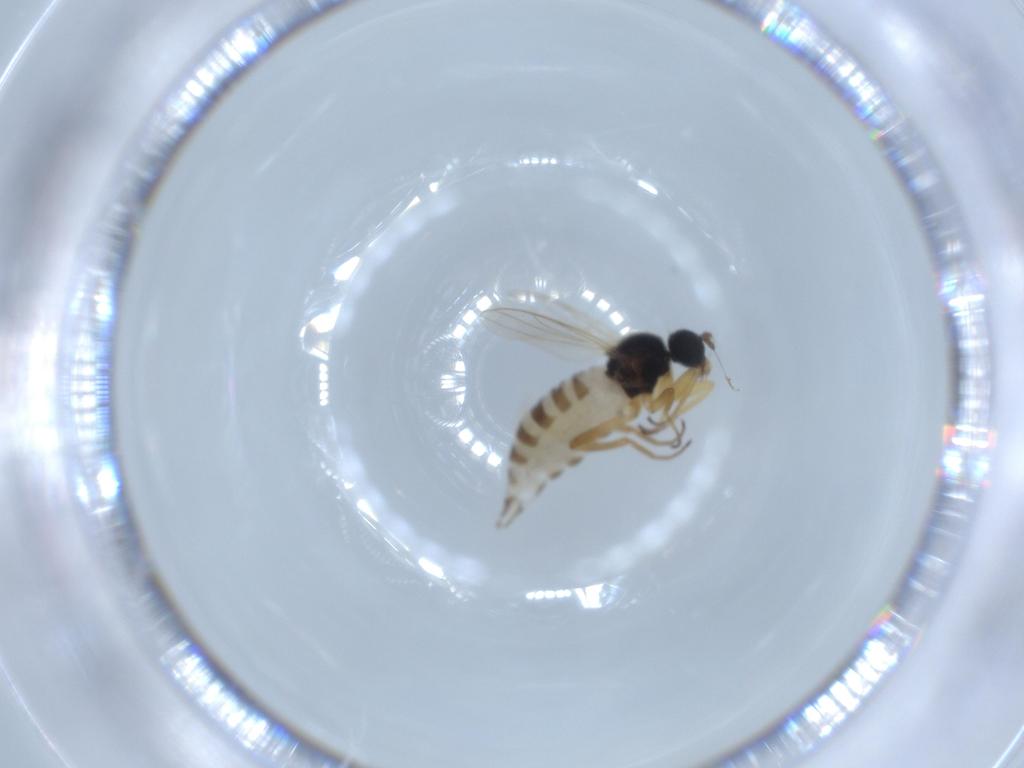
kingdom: Animalia
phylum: Arthropoda
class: Insecta
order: Diptera
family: Hybotidae
